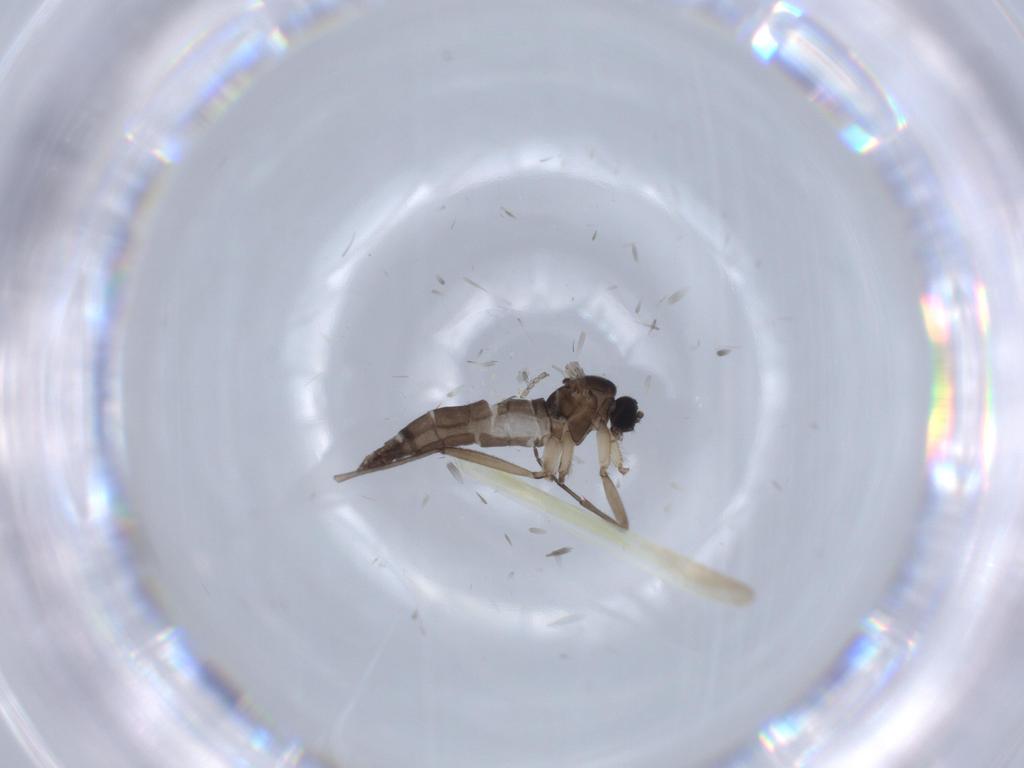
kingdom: Animalia
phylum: Arthropoda
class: Insecta
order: Diptera
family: Sciaridae
